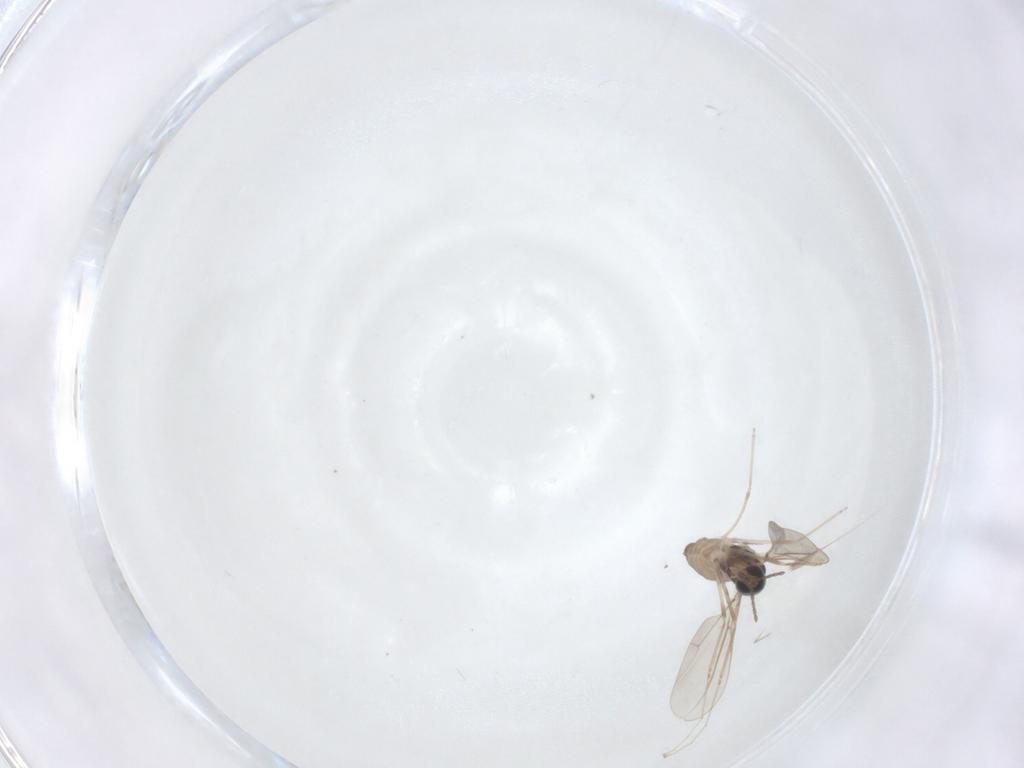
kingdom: Animalia
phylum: Arthropoda
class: Insecta
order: Diptera
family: Cecidomyiidae
